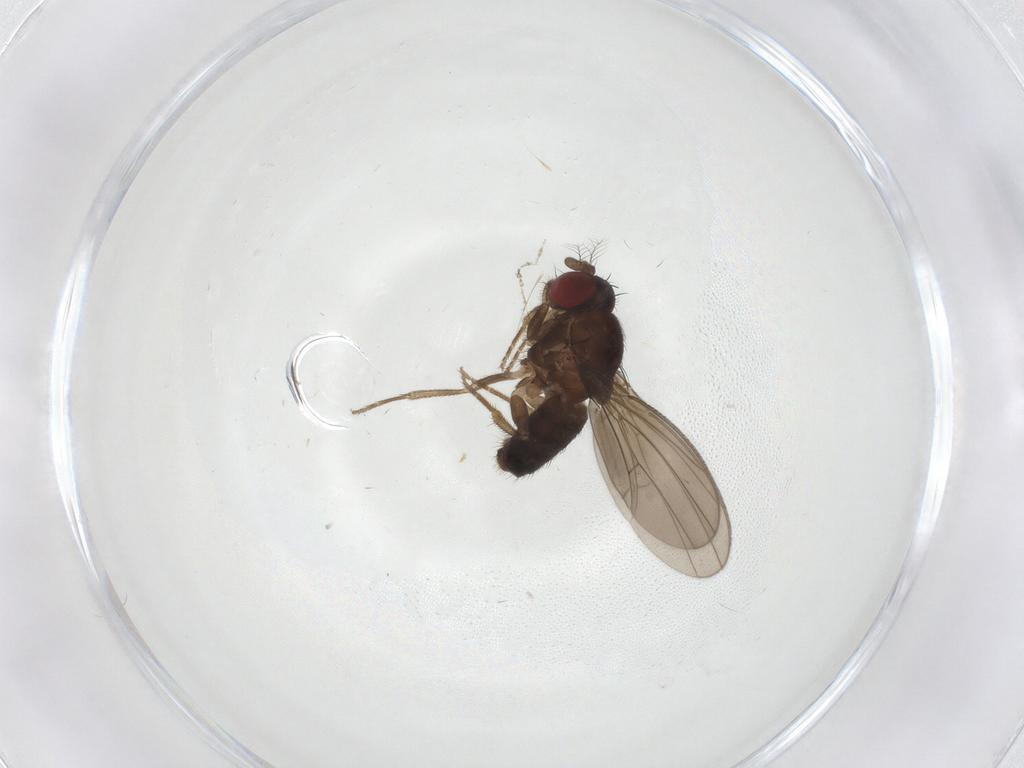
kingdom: Animalia
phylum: Arthropoda
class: Insecta
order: Diptera
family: Drosophilidae
